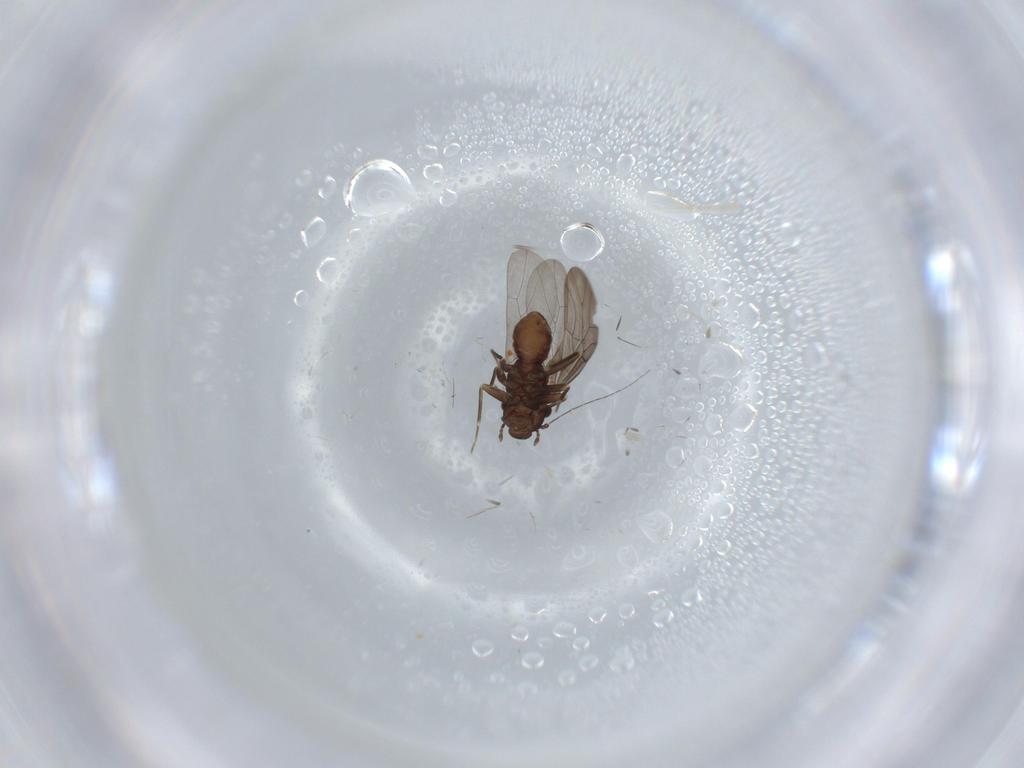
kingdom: Animalia
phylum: Arthropoda
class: Insecta
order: Psocodea
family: Lepidopsocidae
